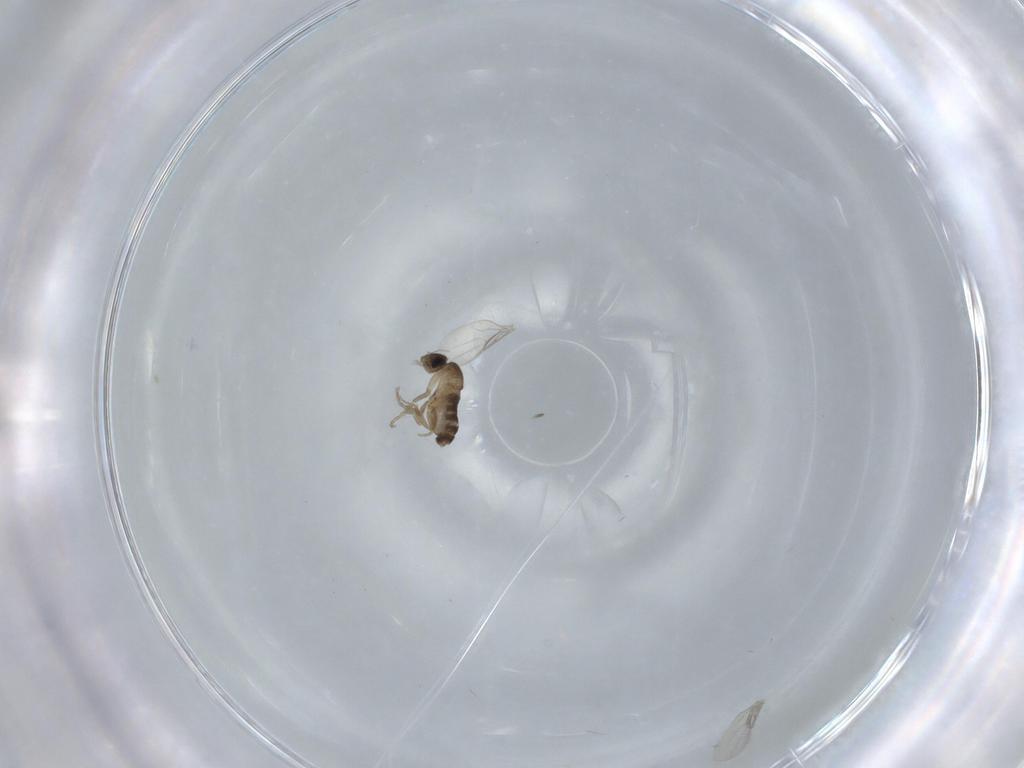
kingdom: Animalia
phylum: Arthropoda
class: Insecta
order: Diptera
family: Phoridae
